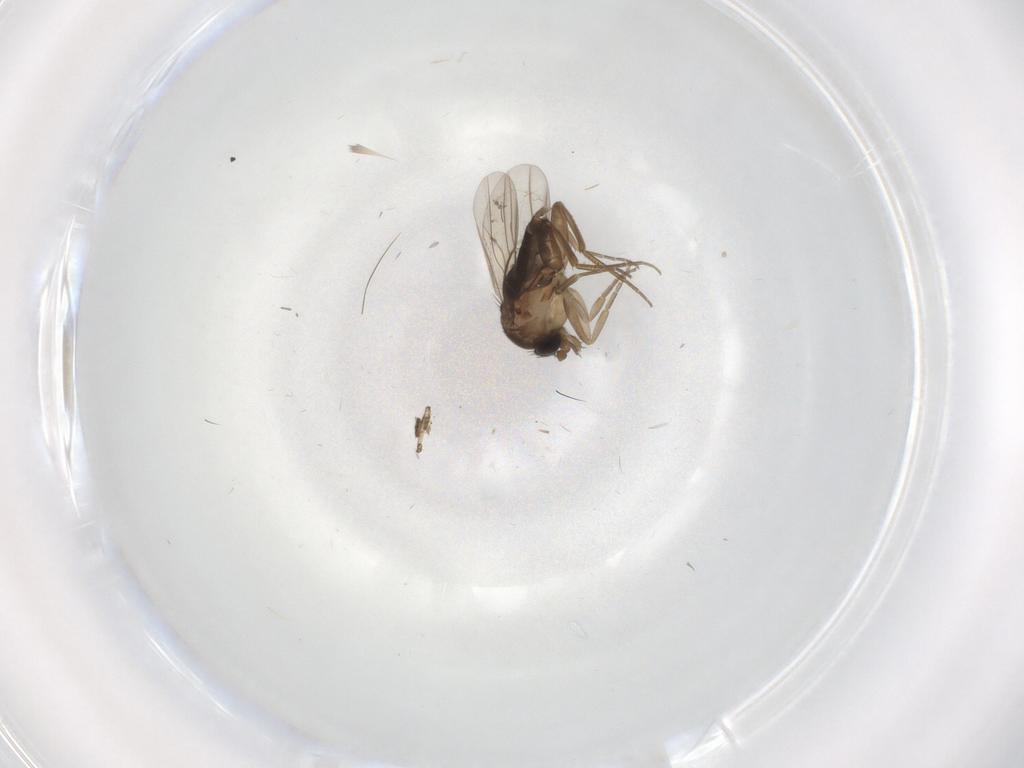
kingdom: Animalia
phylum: Arthropoda
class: Insecta
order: Diptera
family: Phoridae
